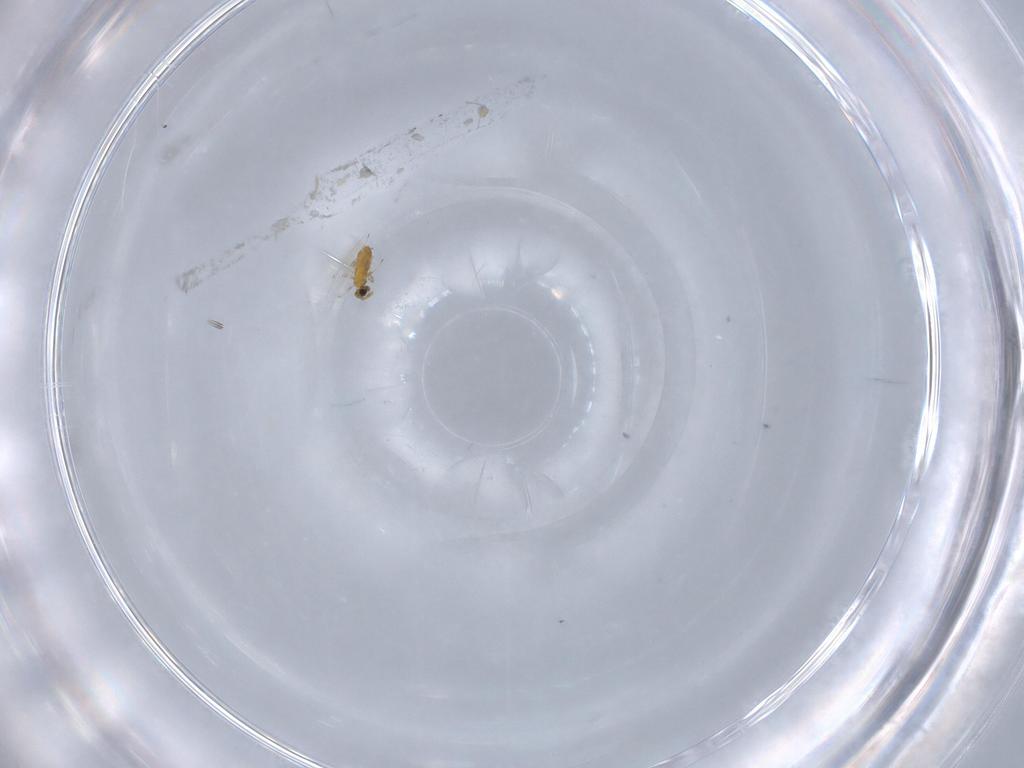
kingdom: Animalia
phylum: Arthropoda
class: Insecta
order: Hymenoptera
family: Trichogrammatidae
